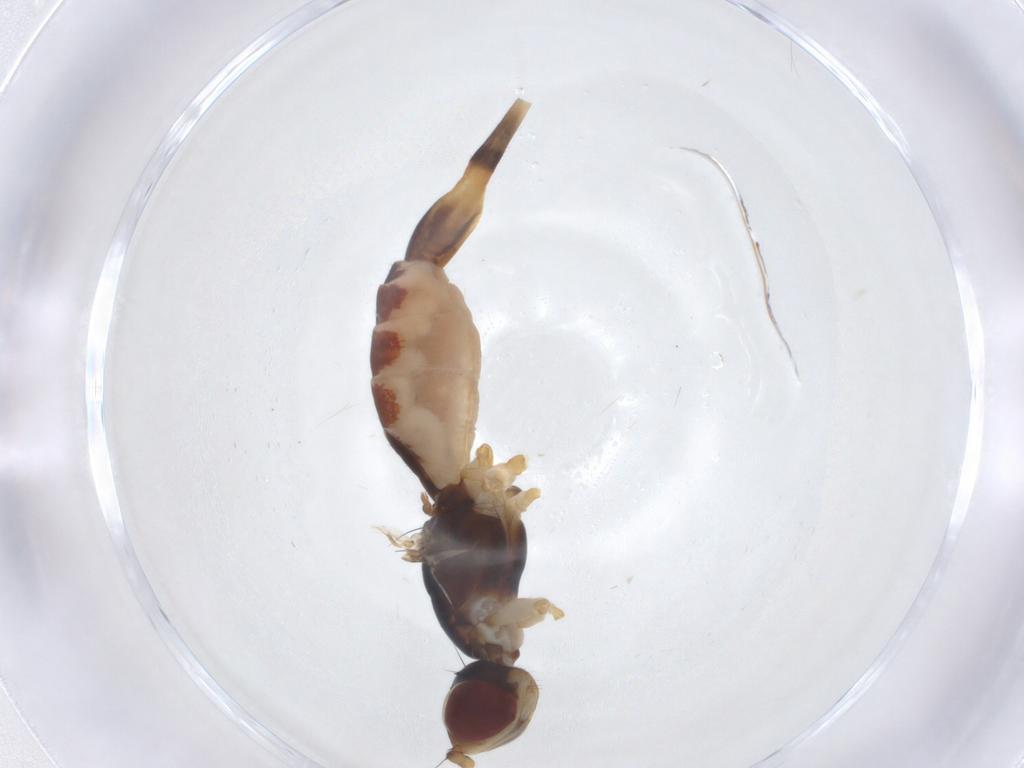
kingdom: Animalia
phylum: Arthropoda
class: Insecta
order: Diptera
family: Micropezidae
